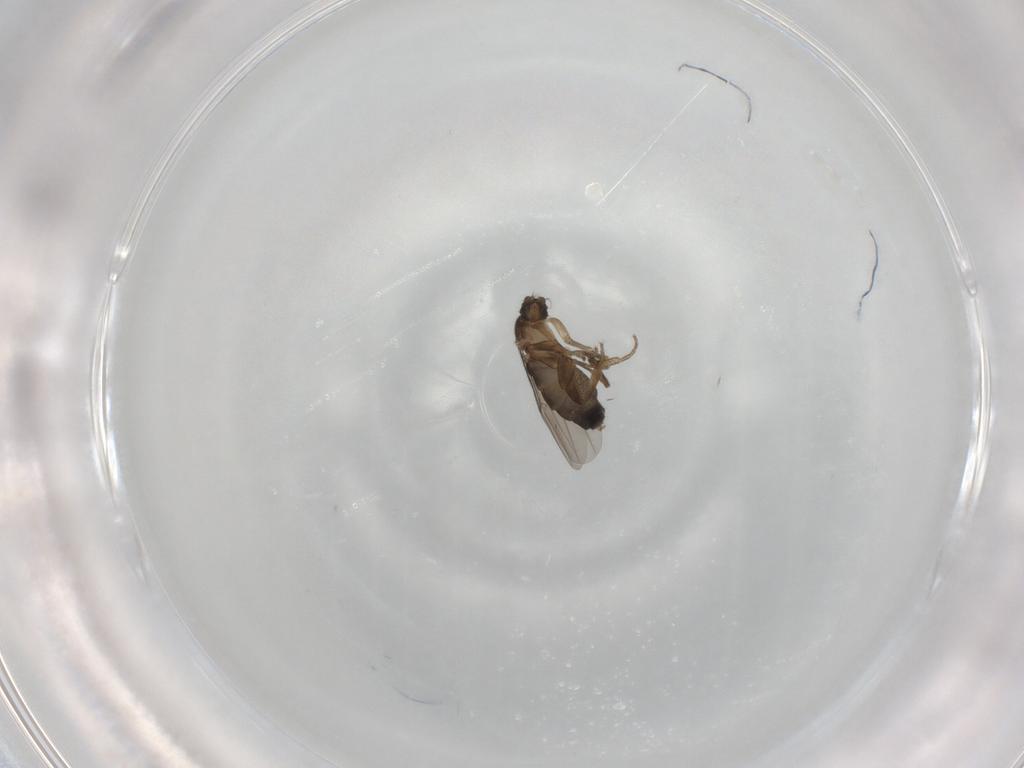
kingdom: Animalia
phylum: Arthropoda
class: Insecta
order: Diptera
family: Phoridae
